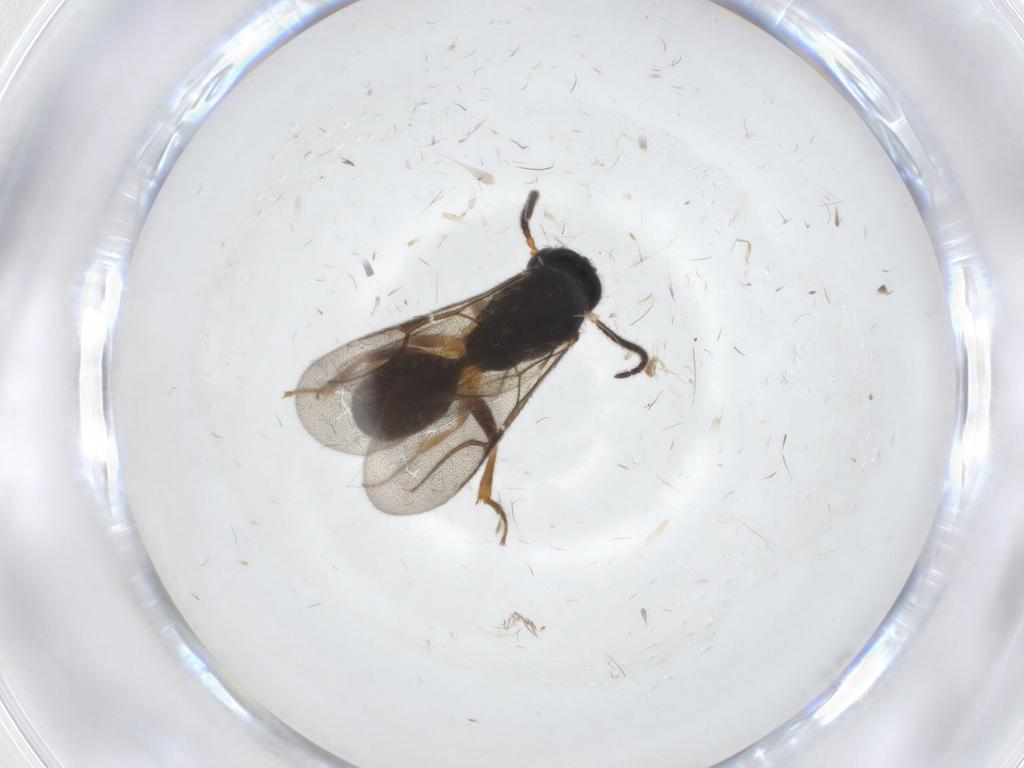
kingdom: Animalia
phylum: Arthropoda
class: Insecta
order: Hymenoptera
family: Bethylidae
